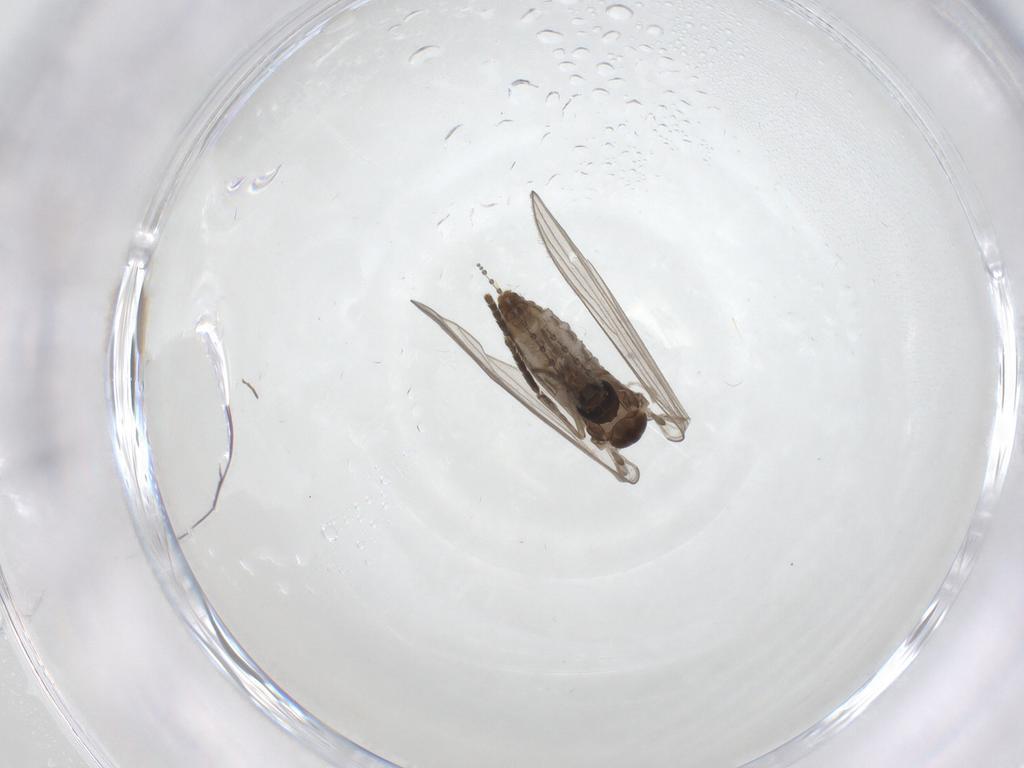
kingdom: Animalia
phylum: Arthropoda
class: Insecta
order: Diptera
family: Psychodidae
